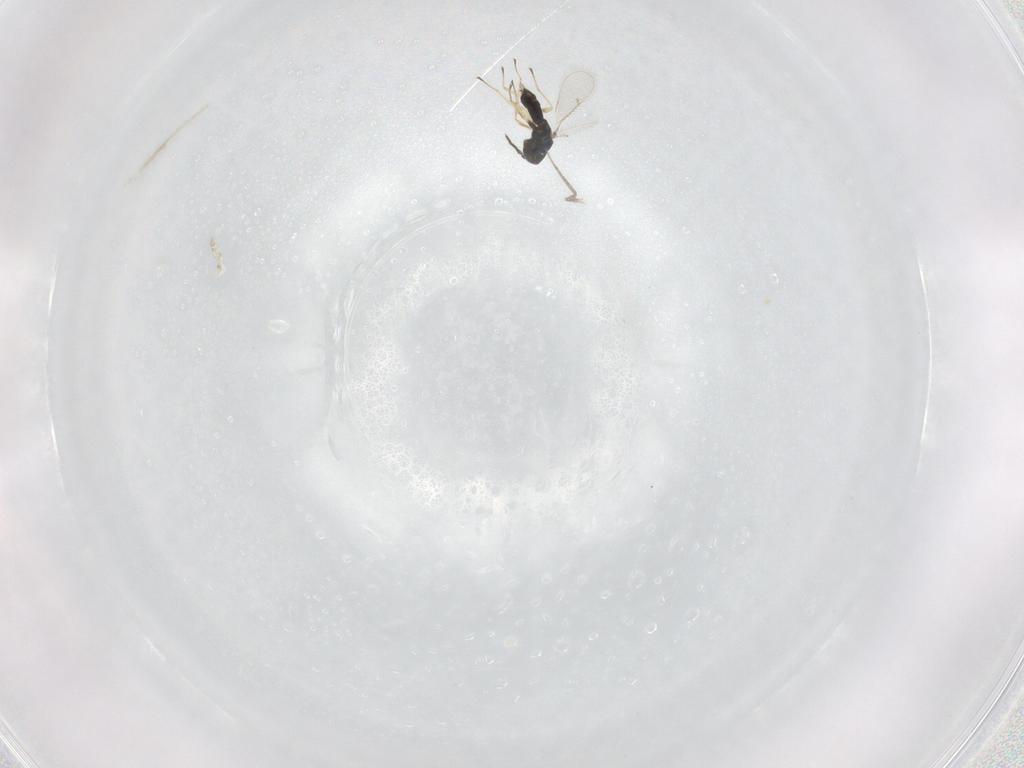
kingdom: Animalia
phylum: Arthropoda
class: Insecta
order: Hymenoptera
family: Eulophidae
